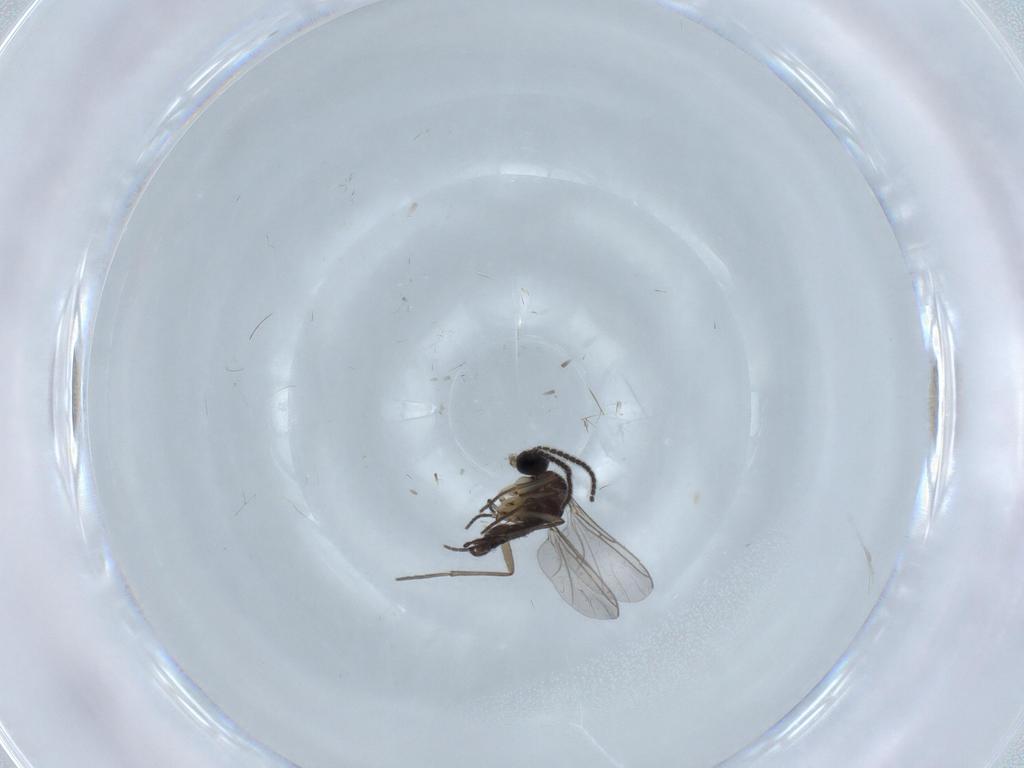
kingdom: Animalia
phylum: Arthropoda
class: Insecta
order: Diptera
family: Sciaridae
